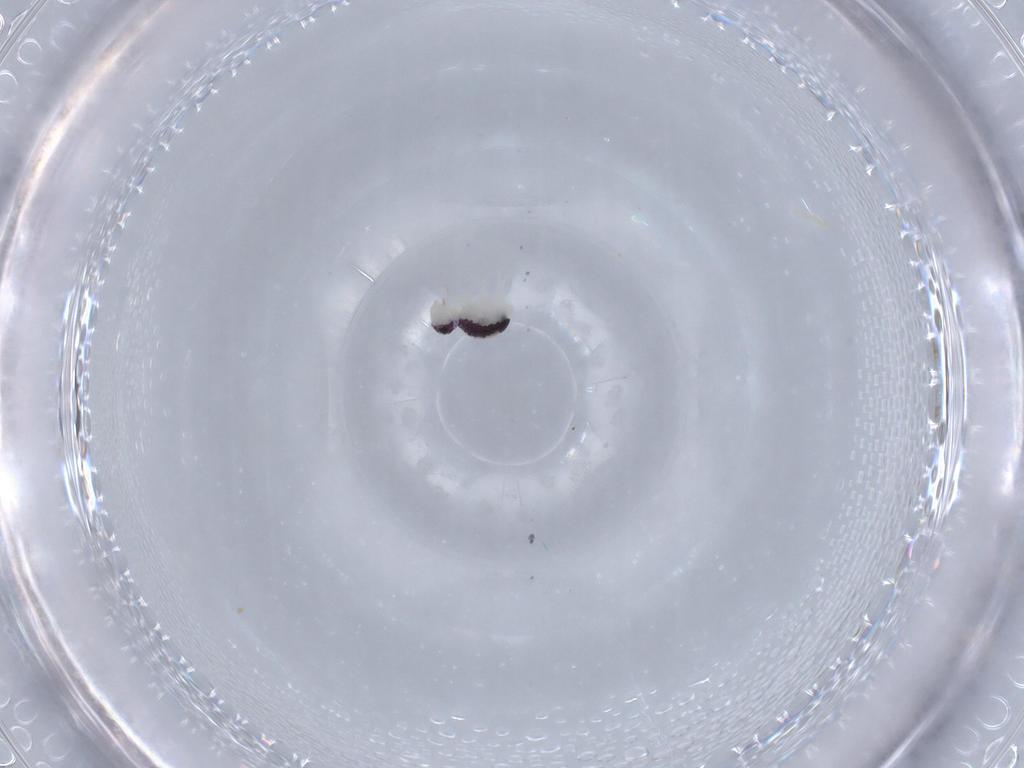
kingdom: Animalia
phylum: Arthropoda
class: Collembola
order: Symphypleona
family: Bourletiellidae
